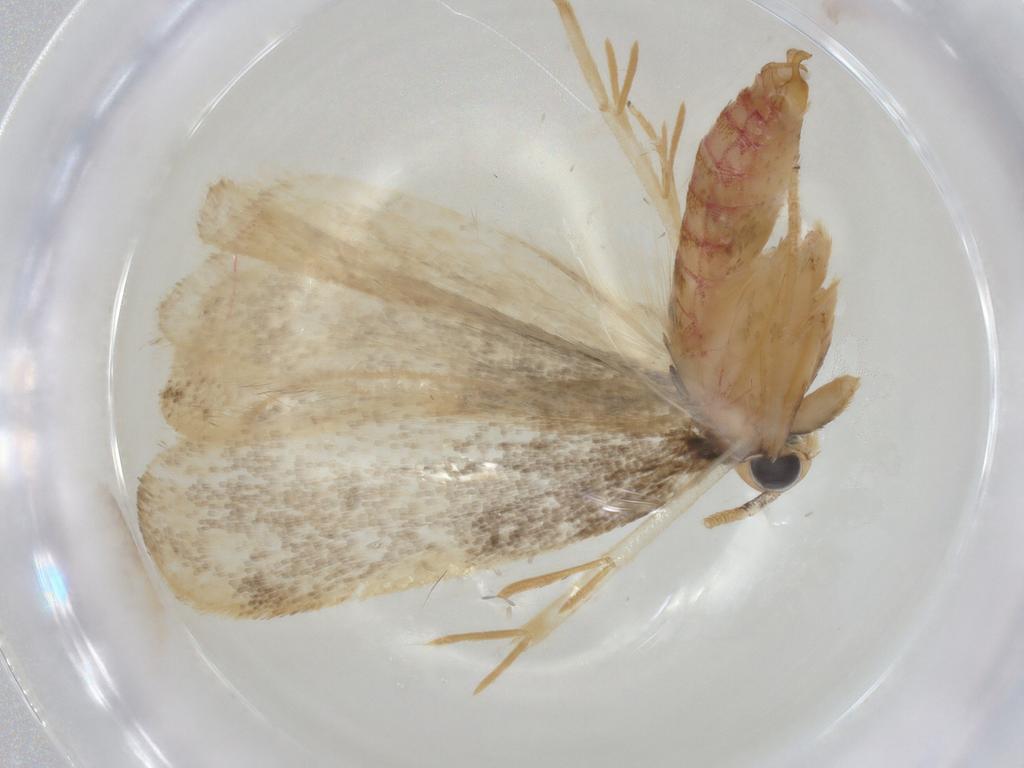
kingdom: Animalia
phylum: Arthropoda
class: Insecta
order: Lepidoptera
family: Lecithoceridae
